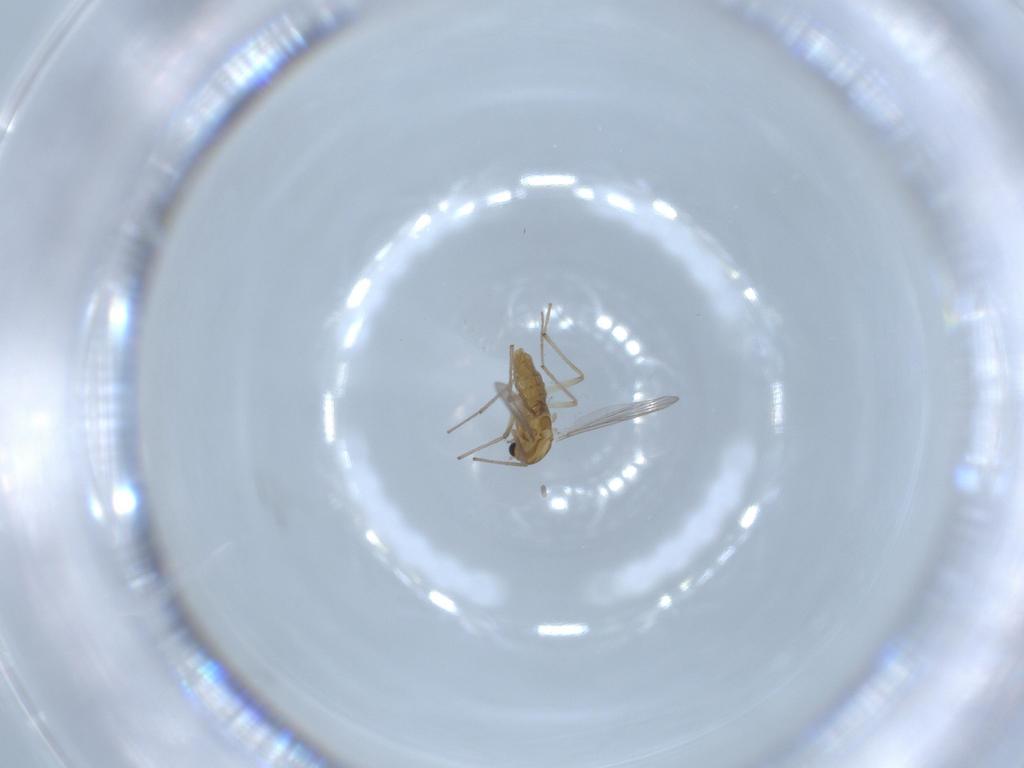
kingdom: Animalia
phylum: Arthropoda
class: Insecta
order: Diptera
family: Chironomidae
